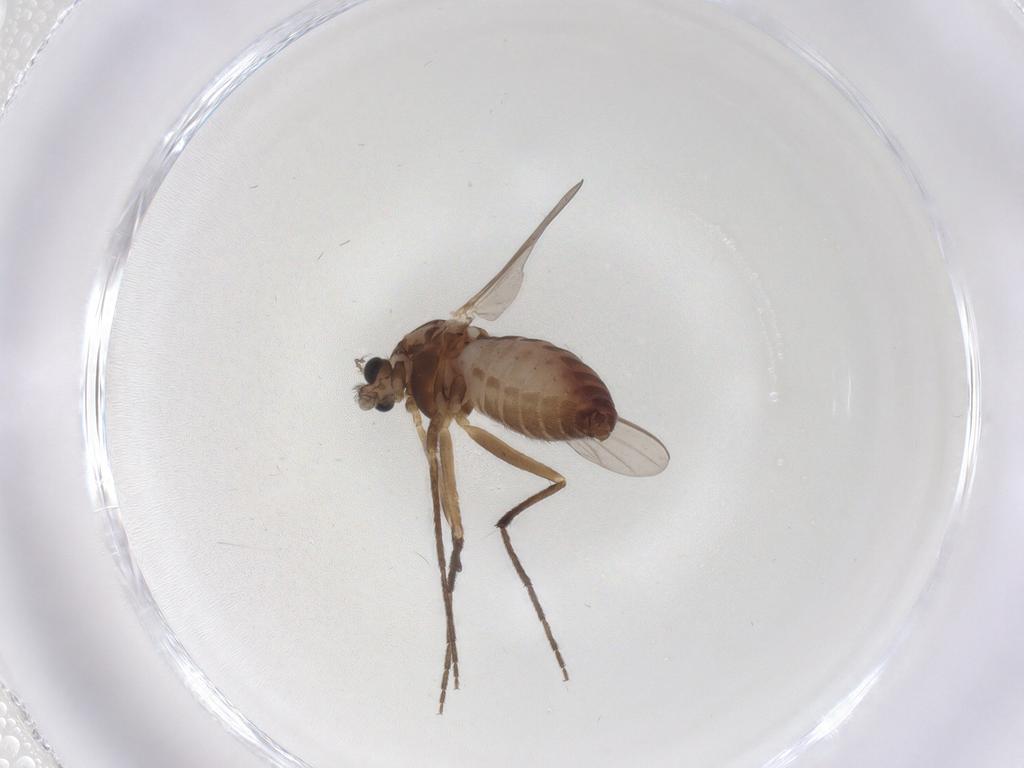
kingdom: Animalia
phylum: Arthropoda
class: Insecta
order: Diptera
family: Chironomidae
